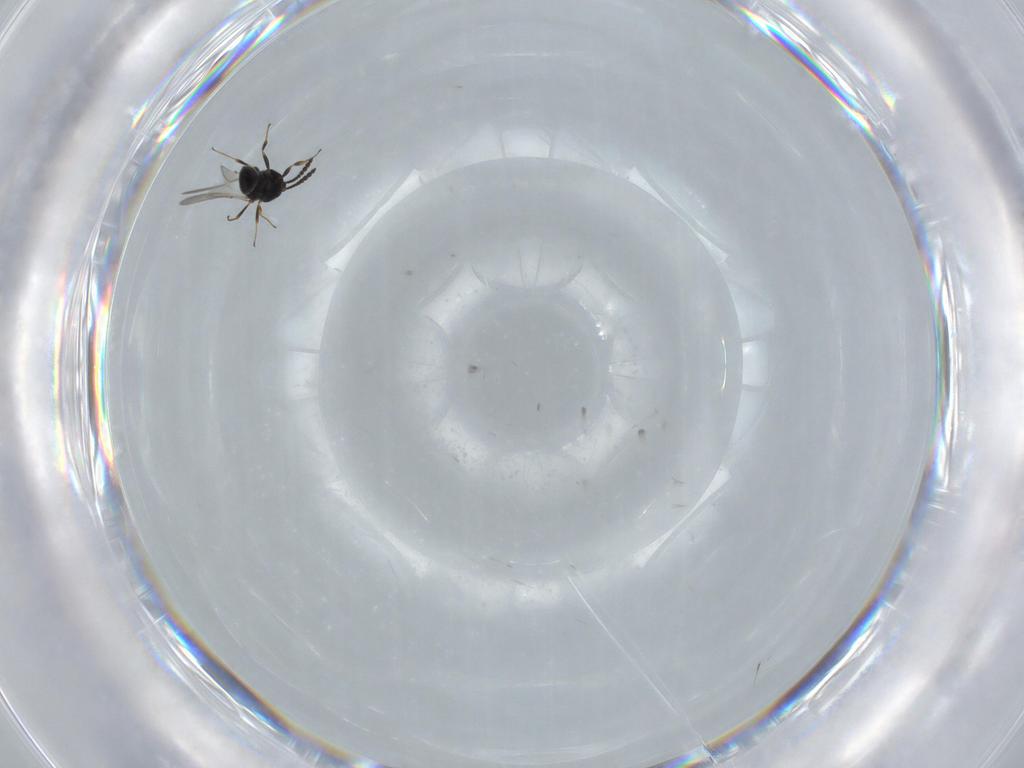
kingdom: Animalia
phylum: Arthropoda
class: Insecta
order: Hymenoptera
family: Scelionidae
